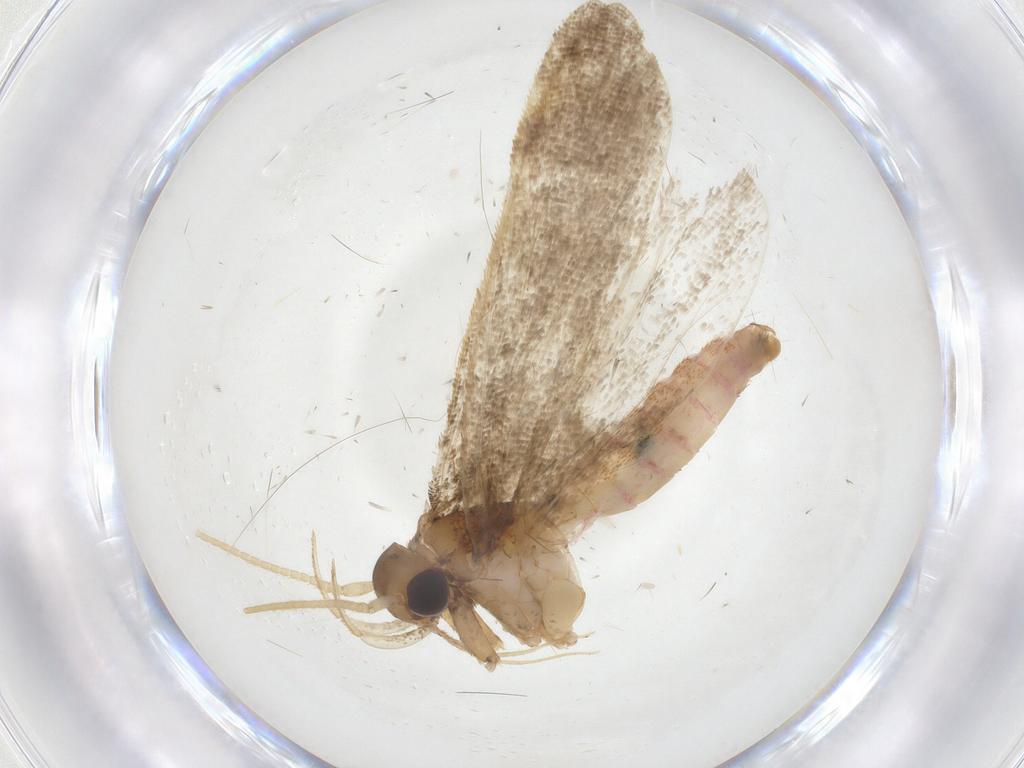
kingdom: Animalia
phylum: Arthropoda
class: Insecta
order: Lepidoptera
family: Lecithoceridae
